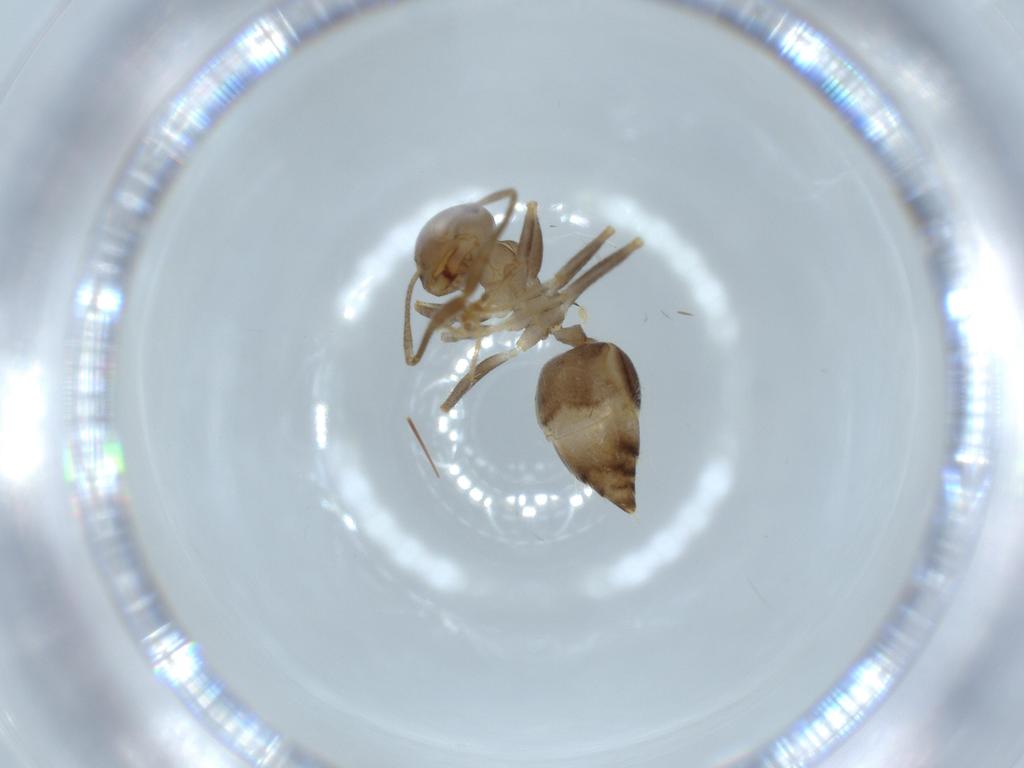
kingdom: Animalia
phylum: Arthropoda
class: Insecta
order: Hymenoptera
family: Formicidae
